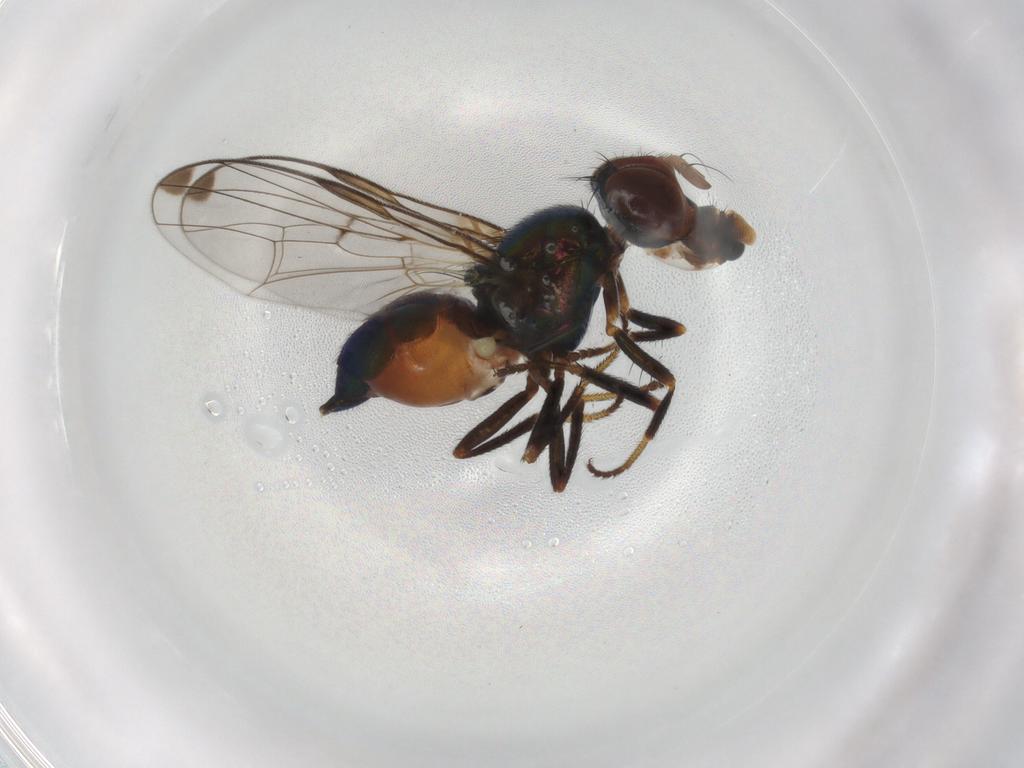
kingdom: Animalia
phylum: Arthropoda
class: Insecta
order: Diptera
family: Platystomatidae
